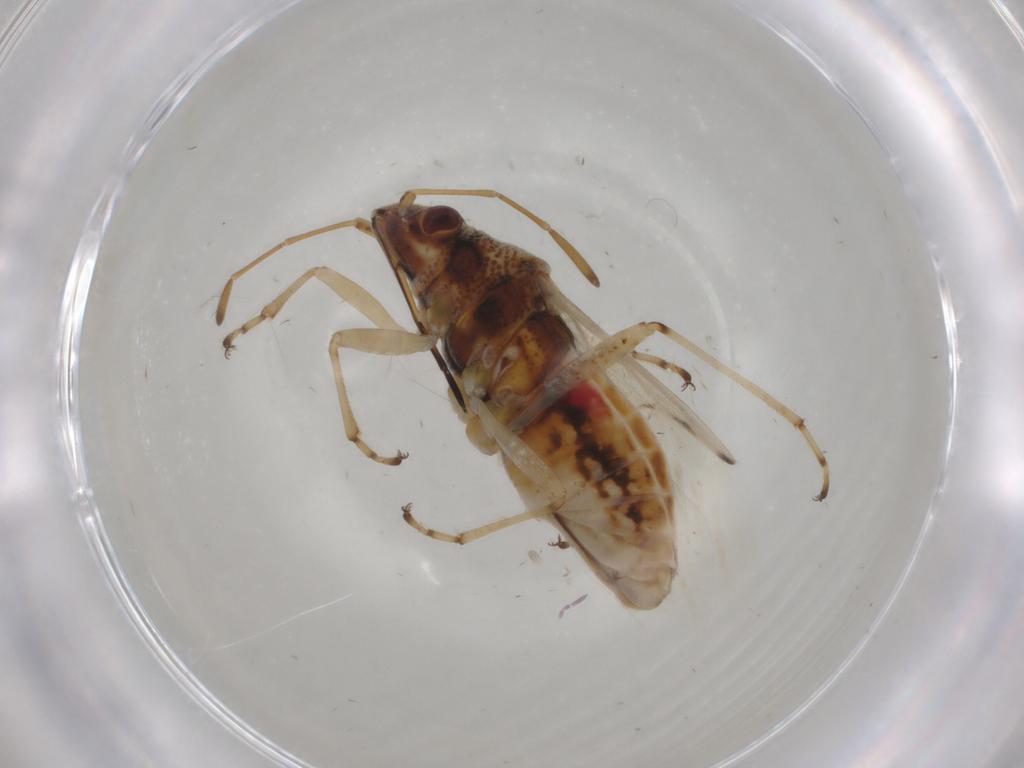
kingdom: Animalia
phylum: Arthropoda
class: Insecta
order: Hemiptera
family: Lygaeidae
